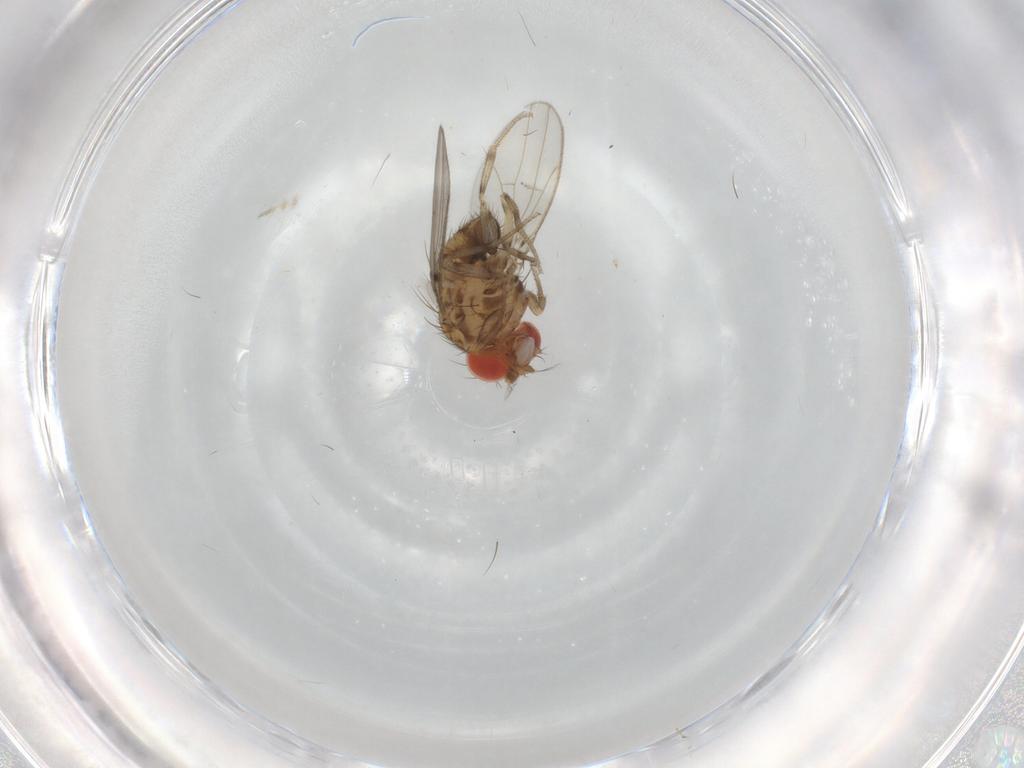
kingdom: Animalia
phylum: Arthropoda
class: Insecta
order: Diptera
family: Drosophilidae
